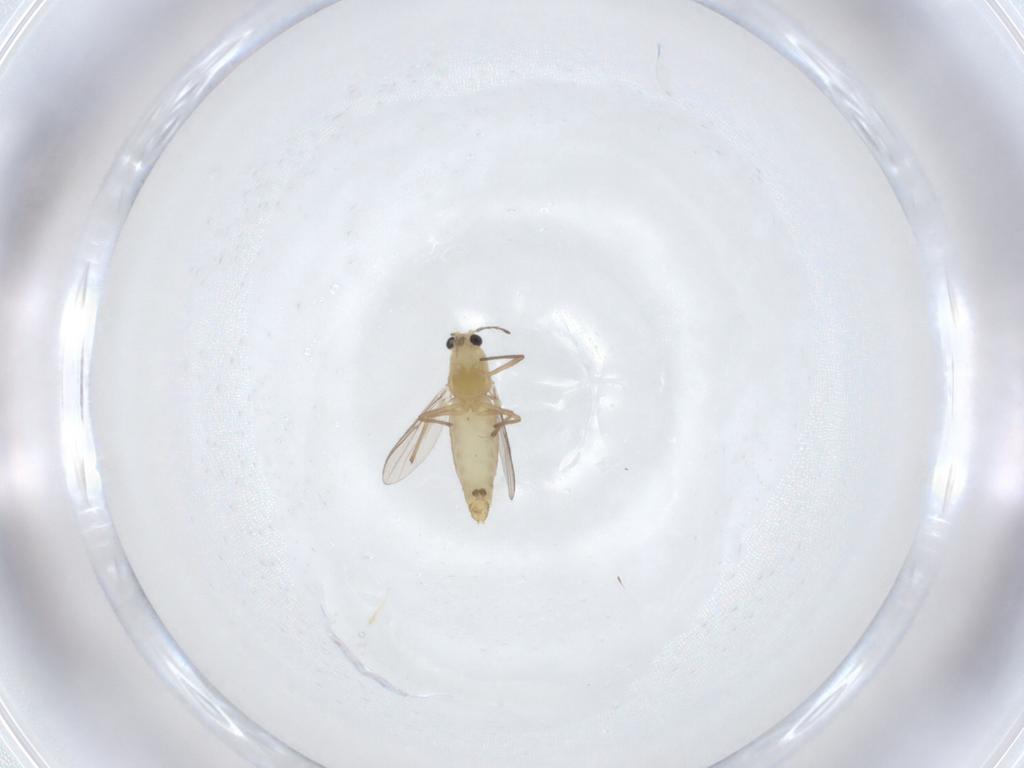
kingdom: Animalia
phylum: Arthropoda
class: Insecta
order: Diptera
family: Chironomidae
